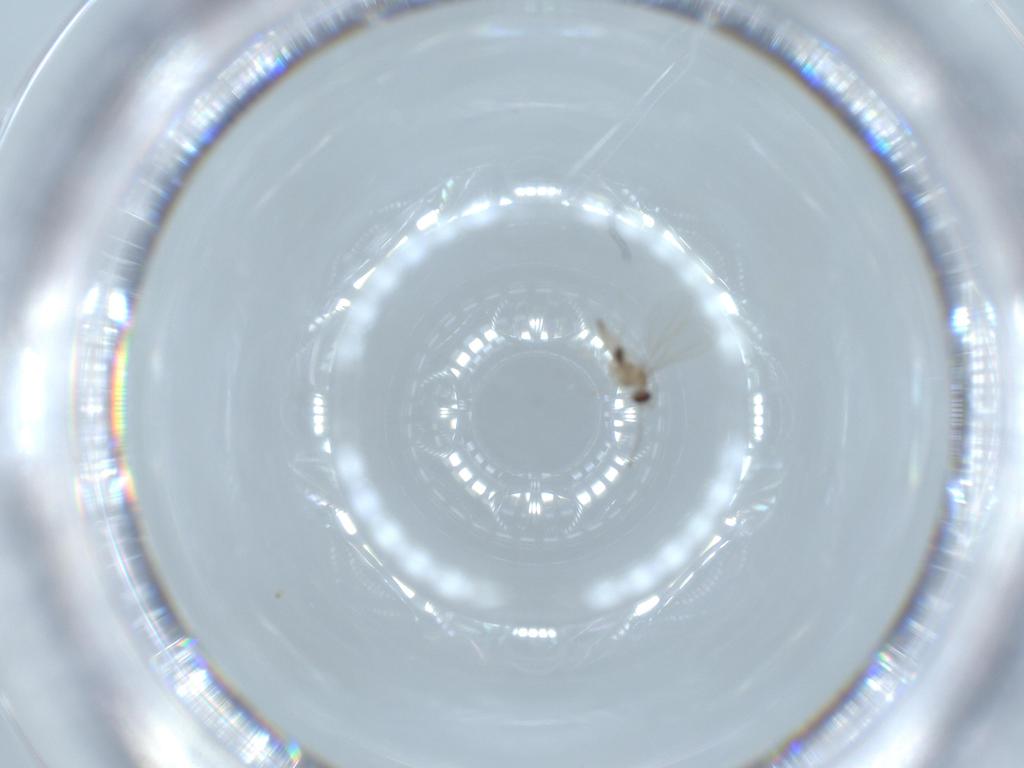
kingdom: Animalia
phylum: Arthropoda
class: Insecta
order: Diptera
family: Cecidomyiidae
